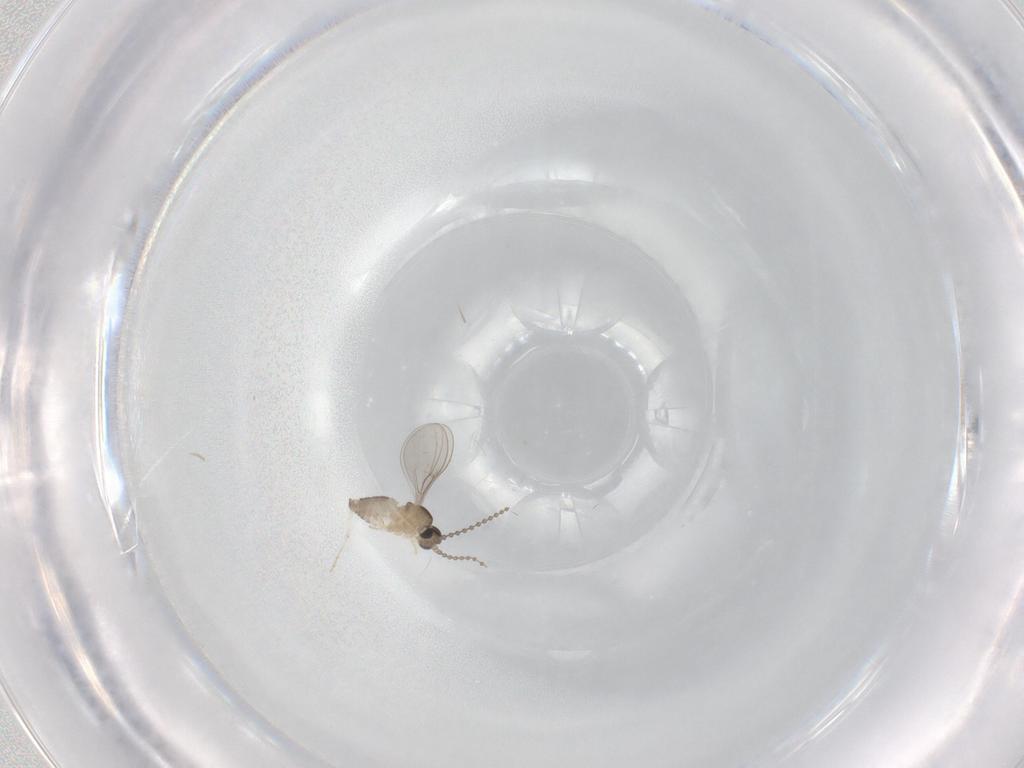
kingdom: Animalia
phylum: Arthropoda
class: Insecta
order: Diptera
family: Cecidomyiidae
